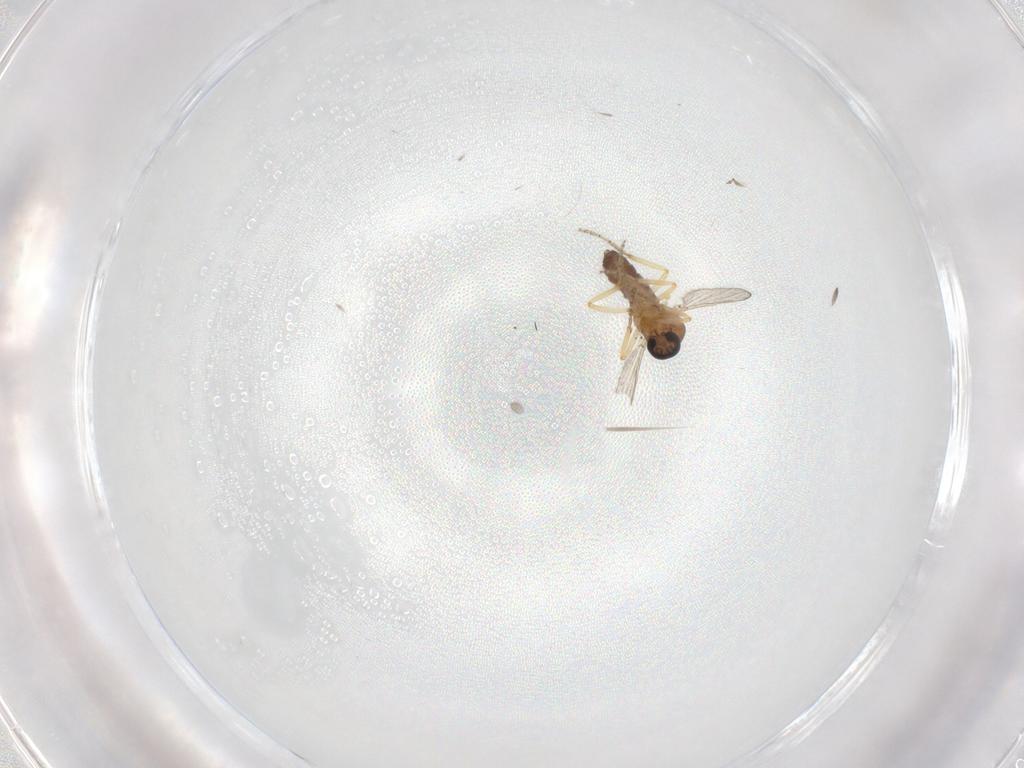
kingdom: Animalia
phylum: Arthropoda
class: Insecta
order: Diptera
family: Ceratopogonidae
